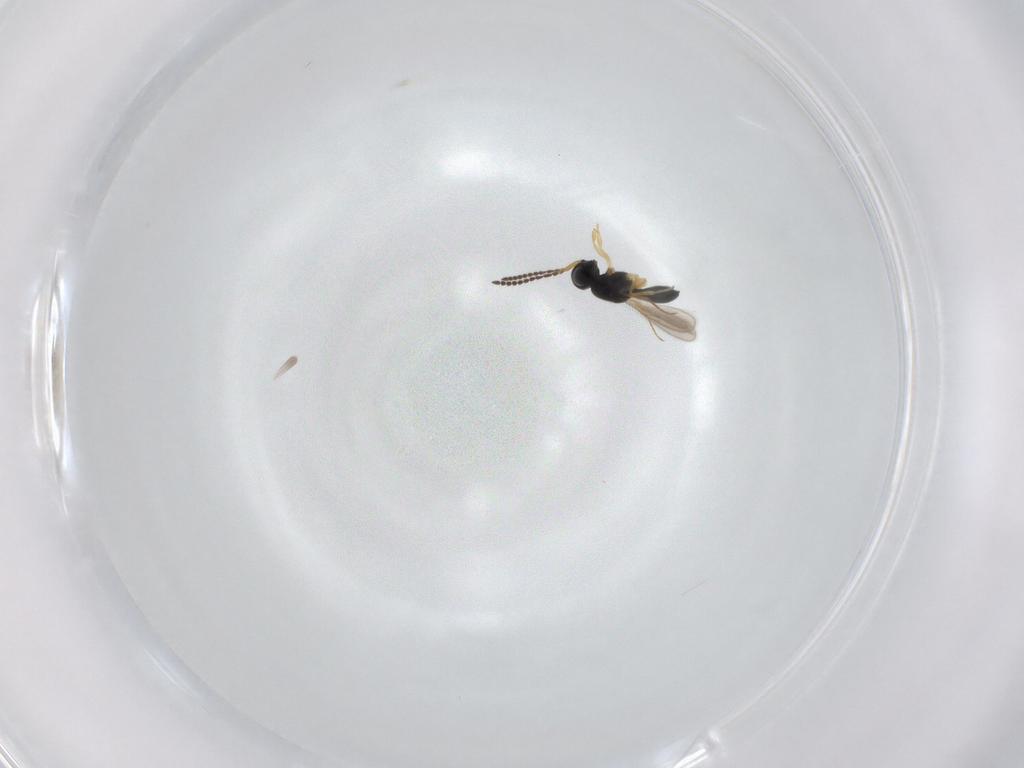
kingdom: Animalia
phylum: Arthropoda
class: Insecta
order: Hymenoptera
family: Scelionidae
